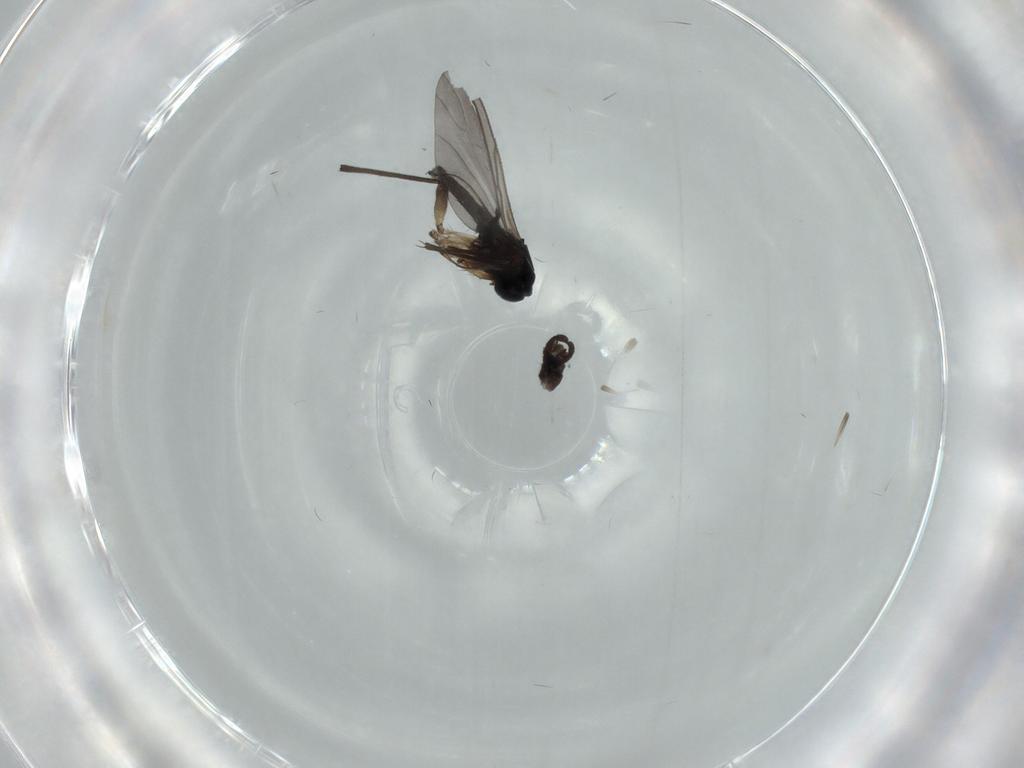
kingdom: Animalia
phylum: Arthropoda
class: Insecta
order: Diptera
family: Sciaridae
